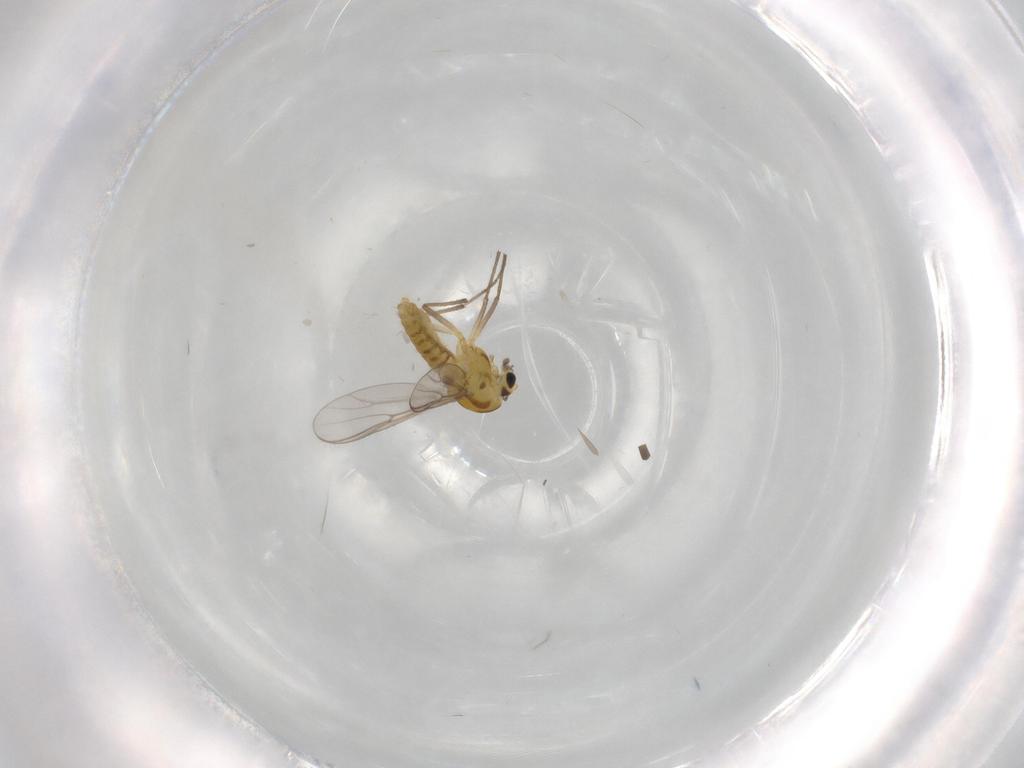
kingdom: Animalia
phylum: Arthropoda
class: Insecta
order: Diptera
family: Chironomidae
